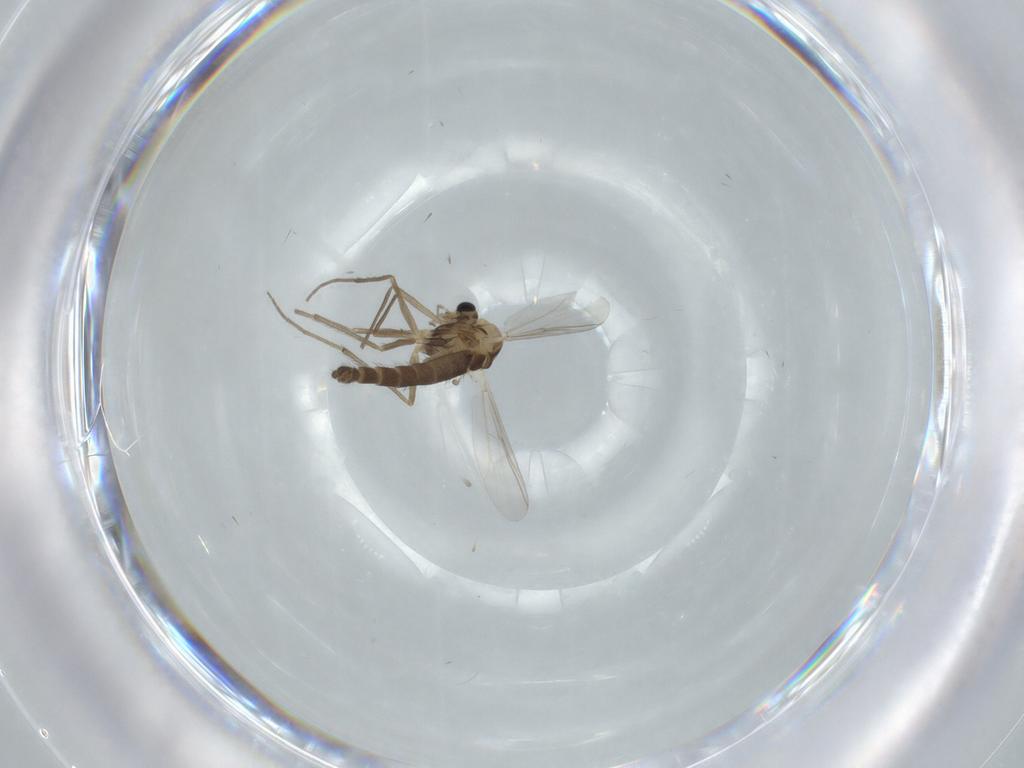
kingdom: Animalia
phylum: Arthropoda
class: Insecta
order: Diptera
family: Chironomidae
